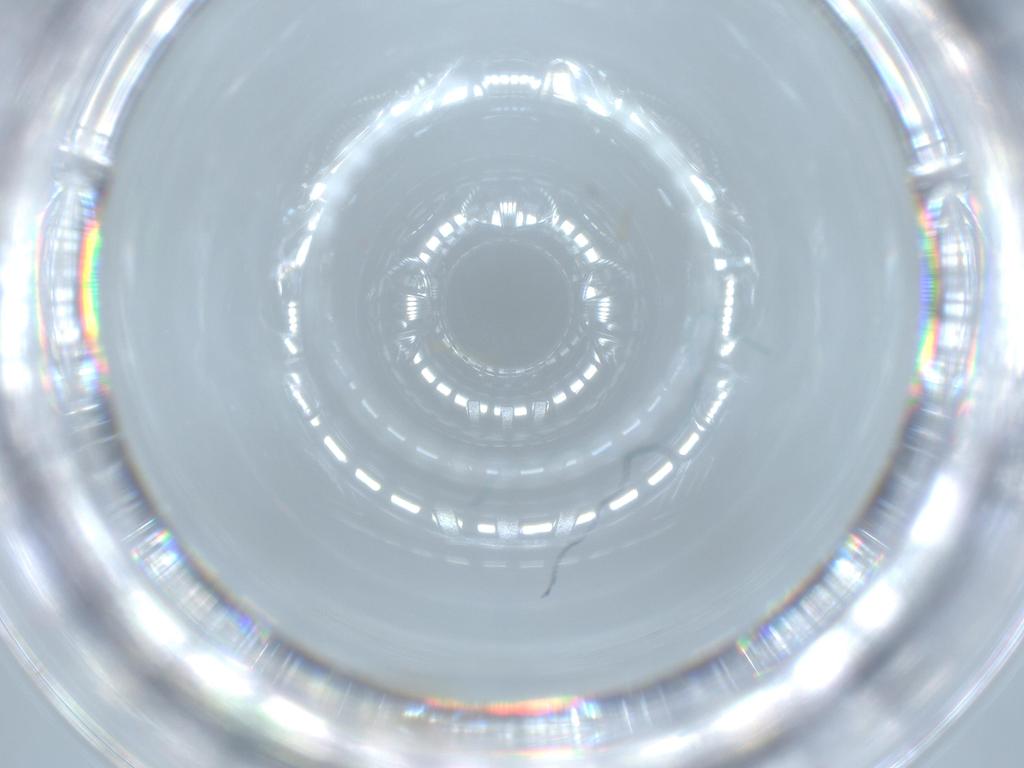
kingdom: Animalia
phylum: Arthropoda
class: Insecta
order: Diptera
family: Sciaridae
